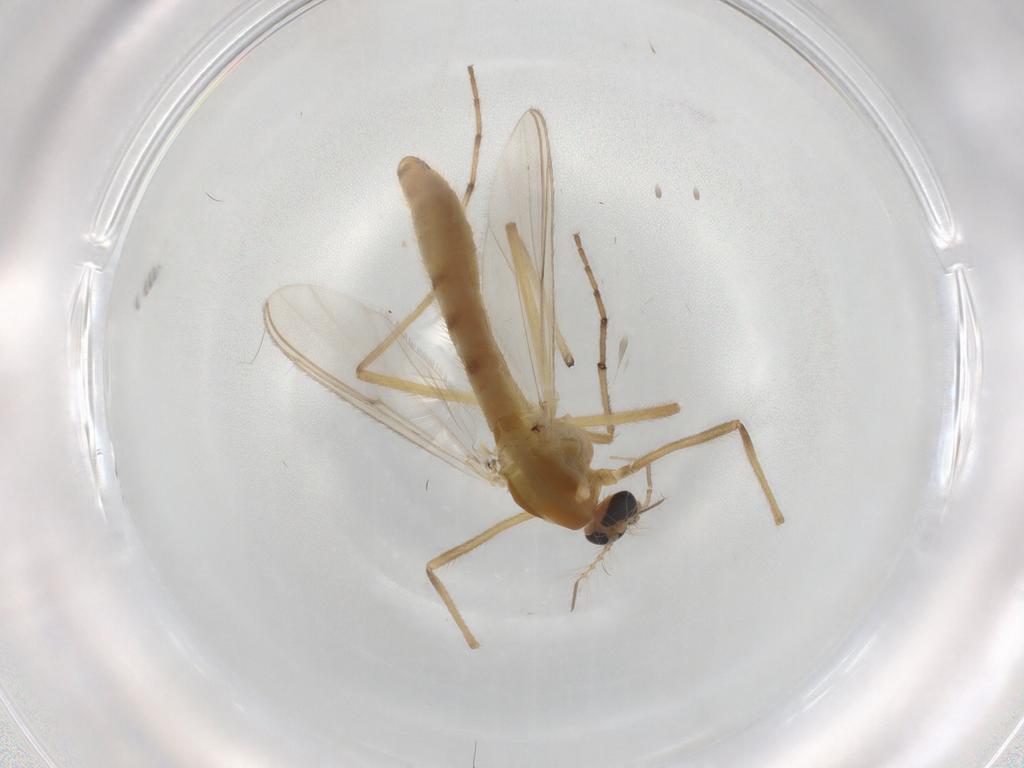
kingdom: Animalia
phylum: Arthropoda
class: Insecta
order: Diptera
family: Chironomidae
